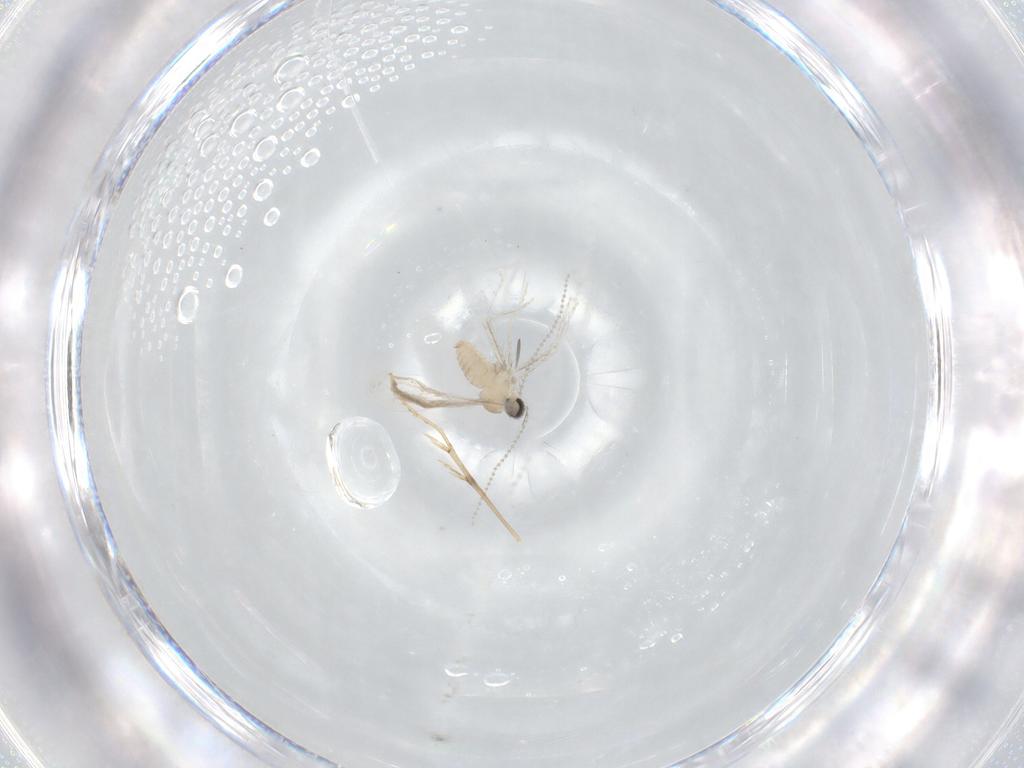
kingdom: Animalia
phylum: Arthropoda
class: Insecta
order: Diptera
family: Cecidomyiidae
